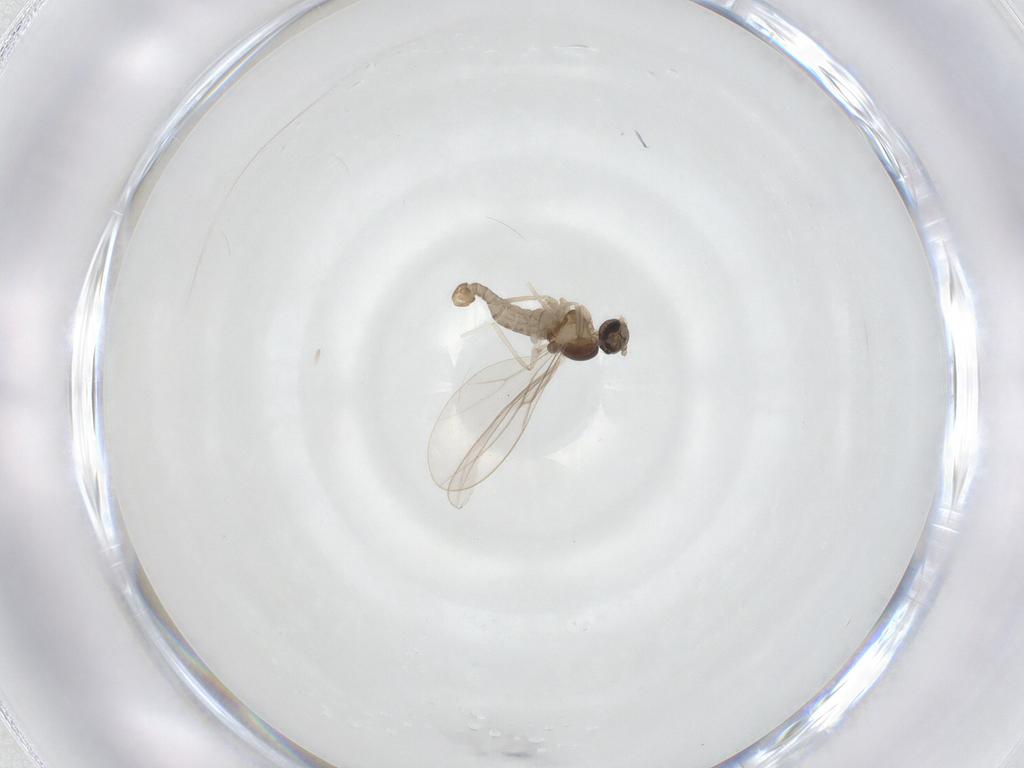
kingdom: Animalia
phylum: Arthropoda
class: Insecta
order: Diptera
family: Cecidomyiidae
